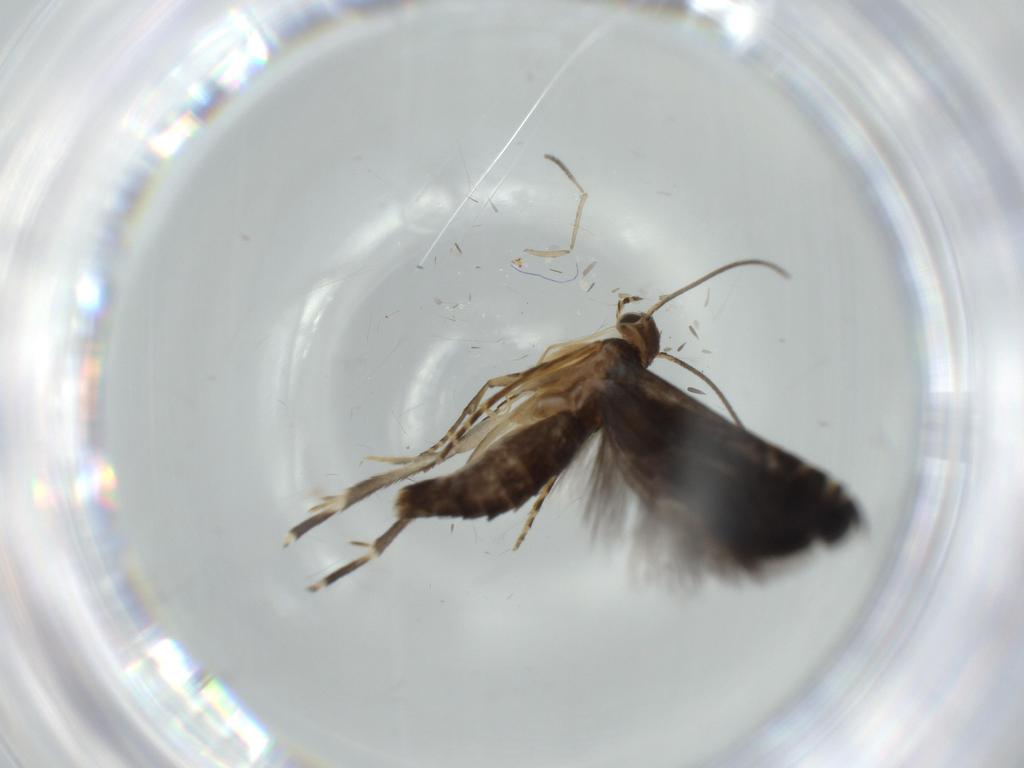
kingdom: Animalia
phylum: Arthropoda
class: Insecta
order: Lepidoptera
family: Glyphipterigidae
